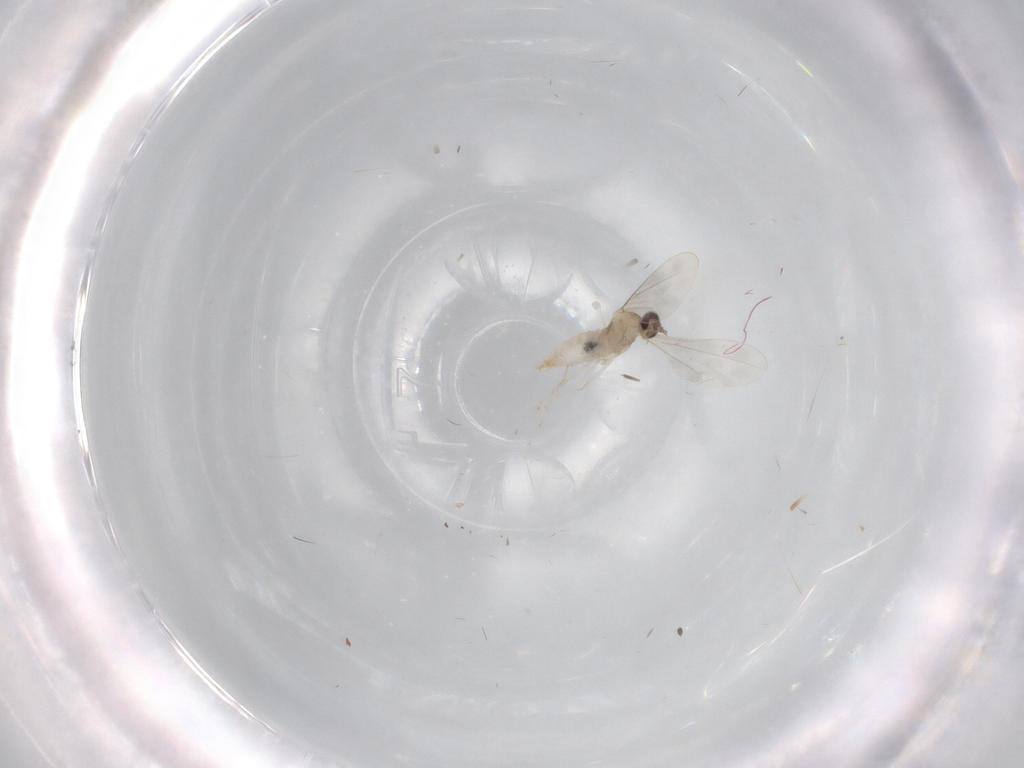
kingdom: Animalia
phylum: Arthropoda
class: Insecta
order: Diptera
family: Cecidomyiidae
